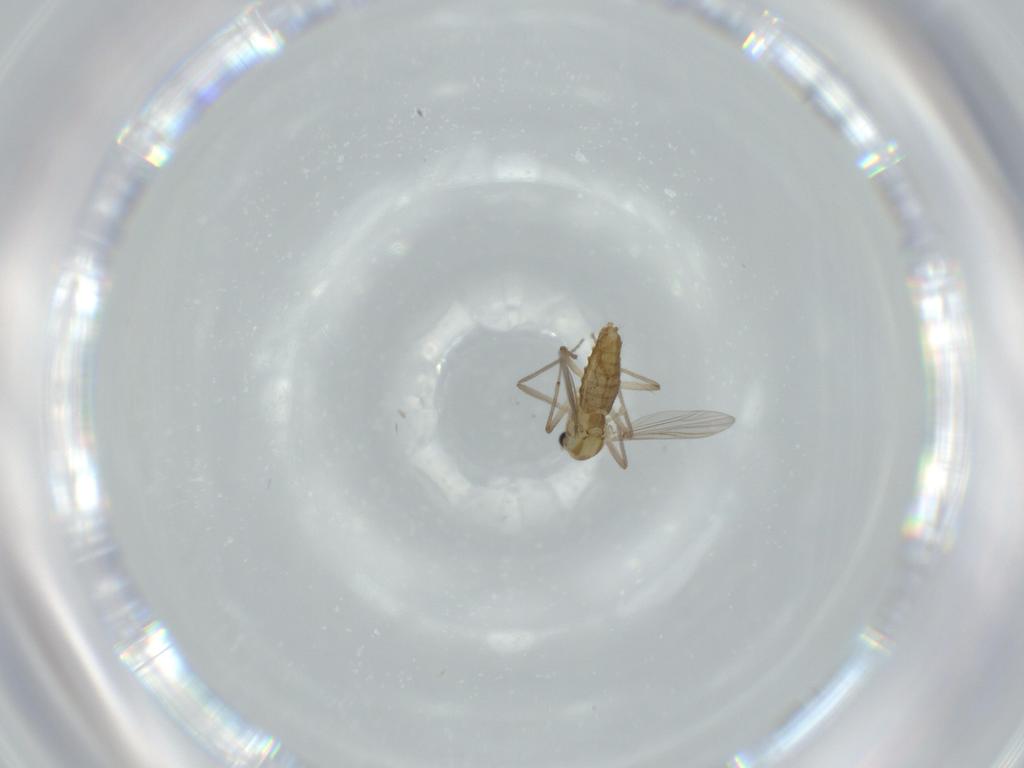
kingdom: Animalia
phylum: Arthropoda
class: Insecta
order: Diptera
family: Chironomidae
